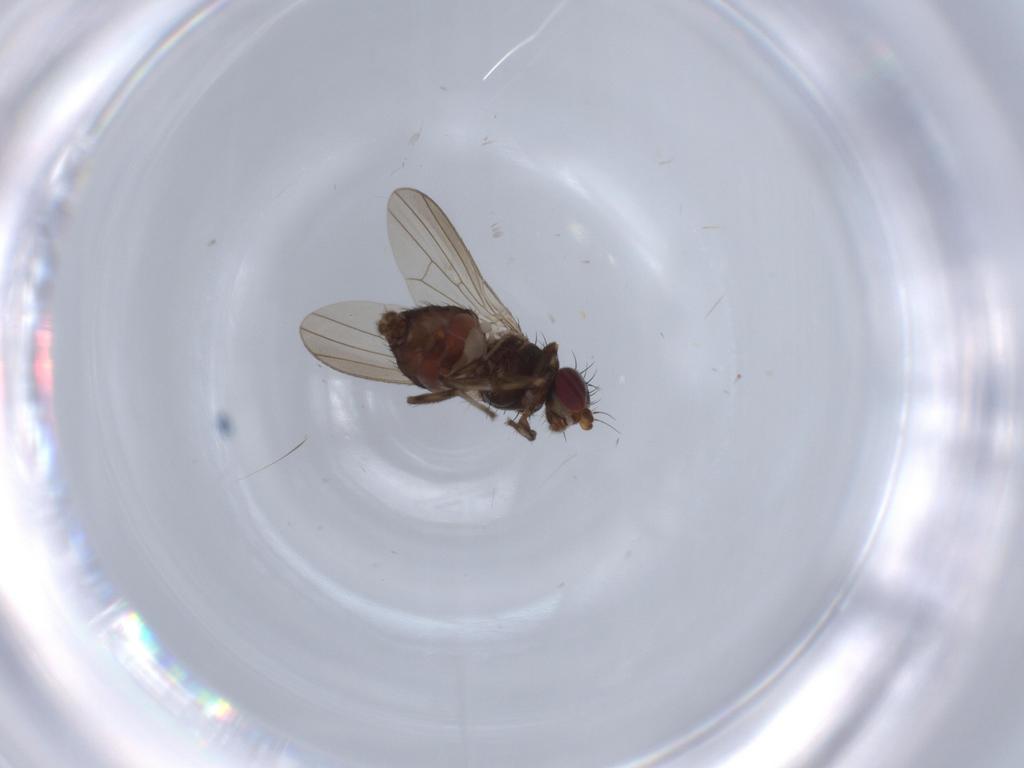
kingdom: Animalia
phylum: Arthropoda
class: Insecta
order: Diptera
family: Heleomyzidae
